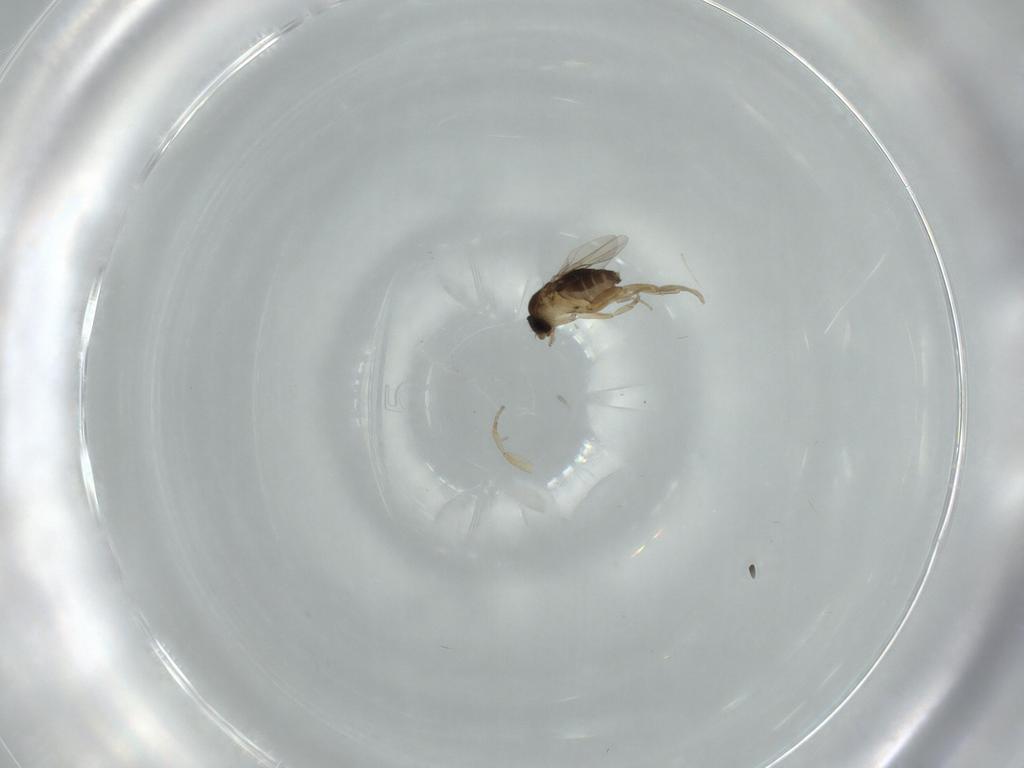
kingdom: Animalia
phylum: Arthropoda
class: Insecta
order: Diptera
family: Phoridae
